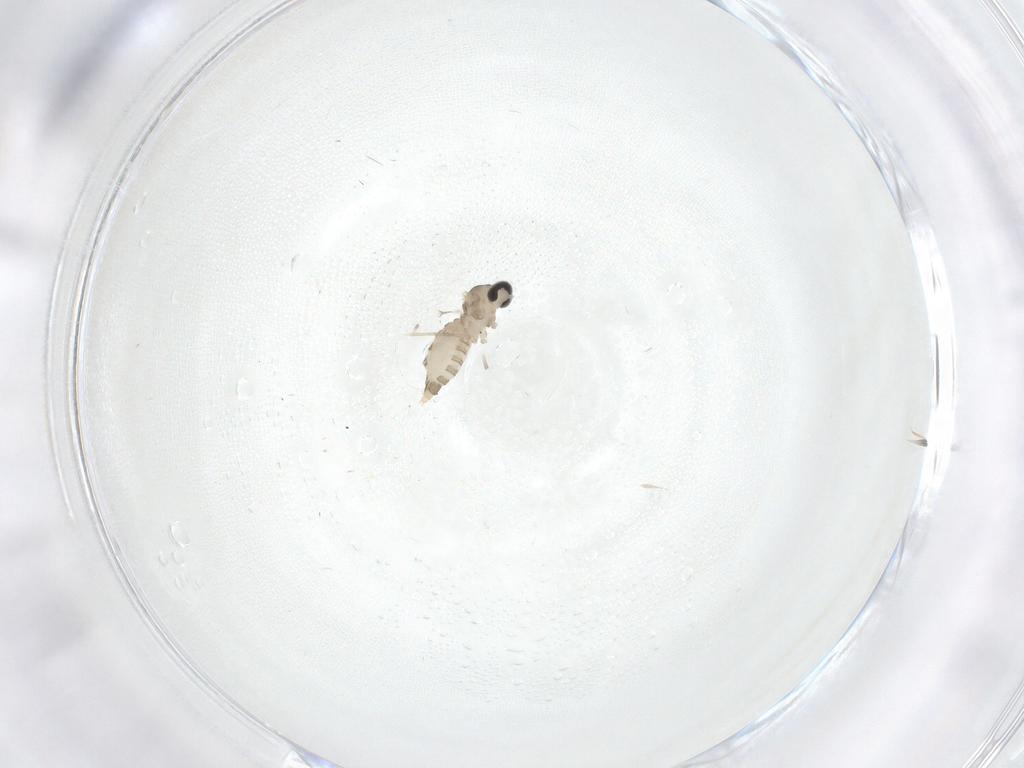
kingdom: Animalia
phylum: Arthropoda
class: Insecta
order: Diptera
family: Cecidomyiidae
